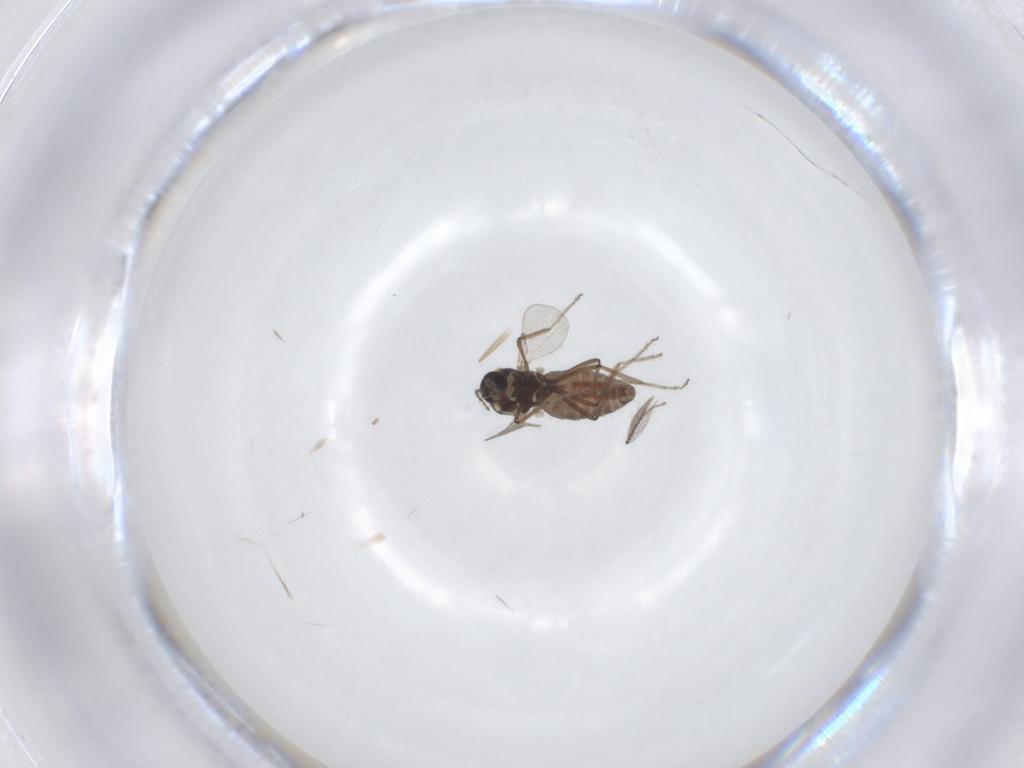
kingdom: Animalia
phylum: Arthropoda
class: Insecta
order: Diptera
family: Ceratopogonidae
